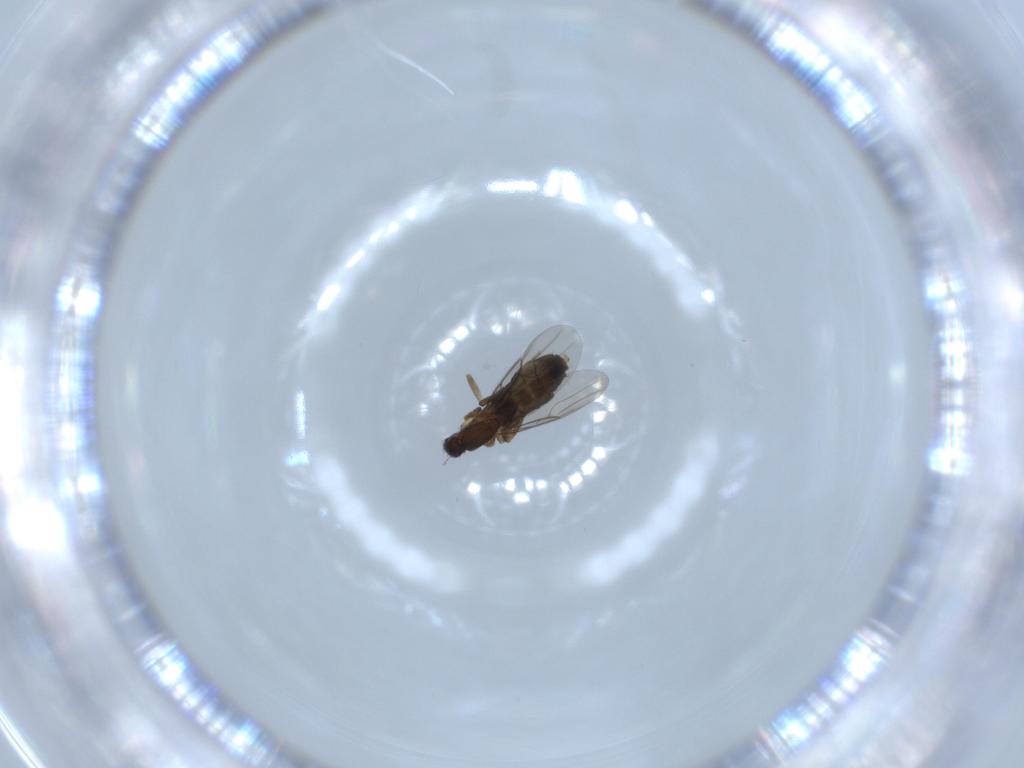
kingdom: Animalia
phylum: Arthropoda
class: Insecta
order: Diptera
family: Phoridae
